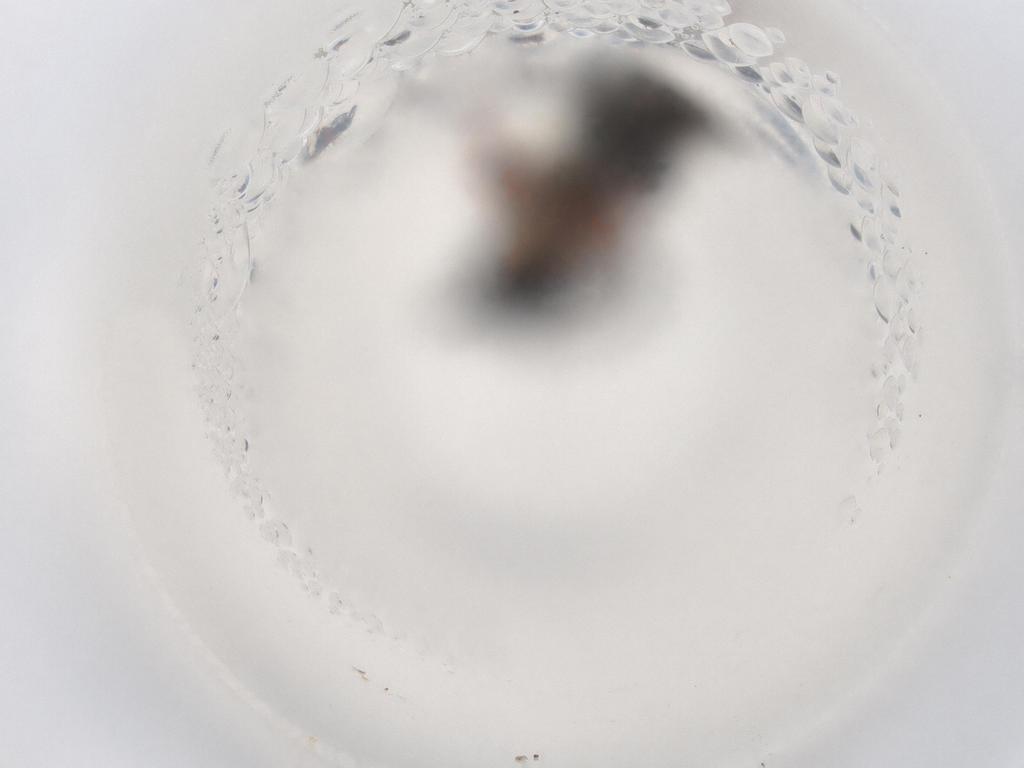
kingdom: Animalia
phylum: Arthropoda
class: Insecta
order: Hymenoptera
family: Diapriidae
